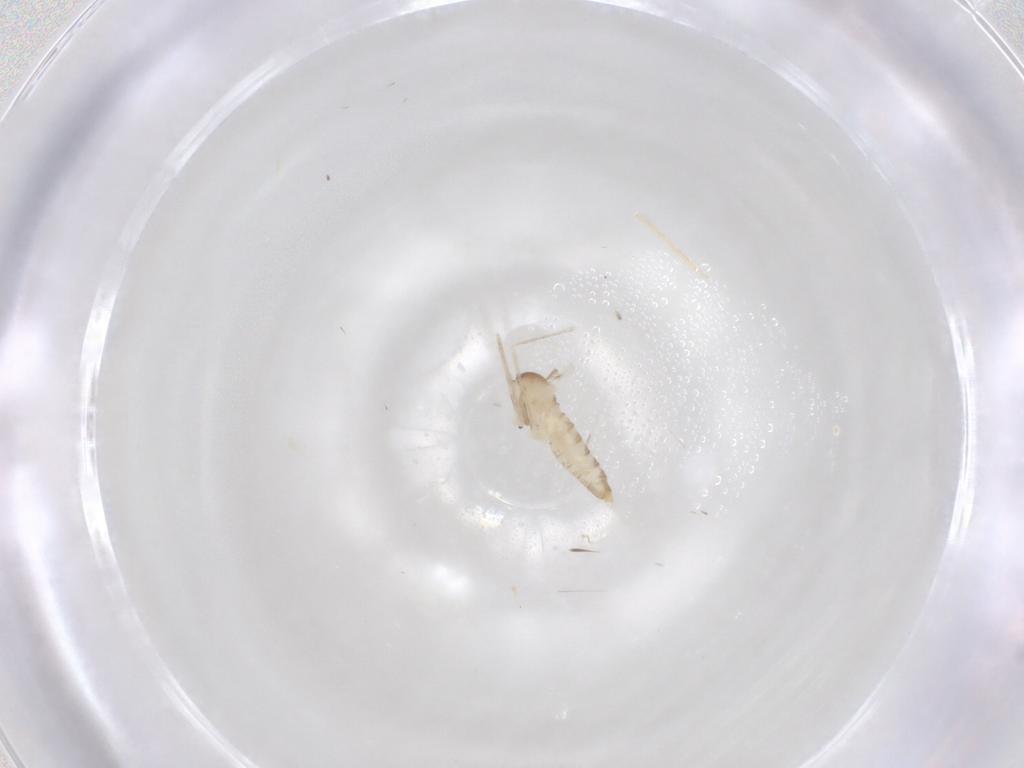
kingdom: Animalia
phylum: Arthropoda
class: Insecta
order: Diptera
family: Cecidomyiidae
